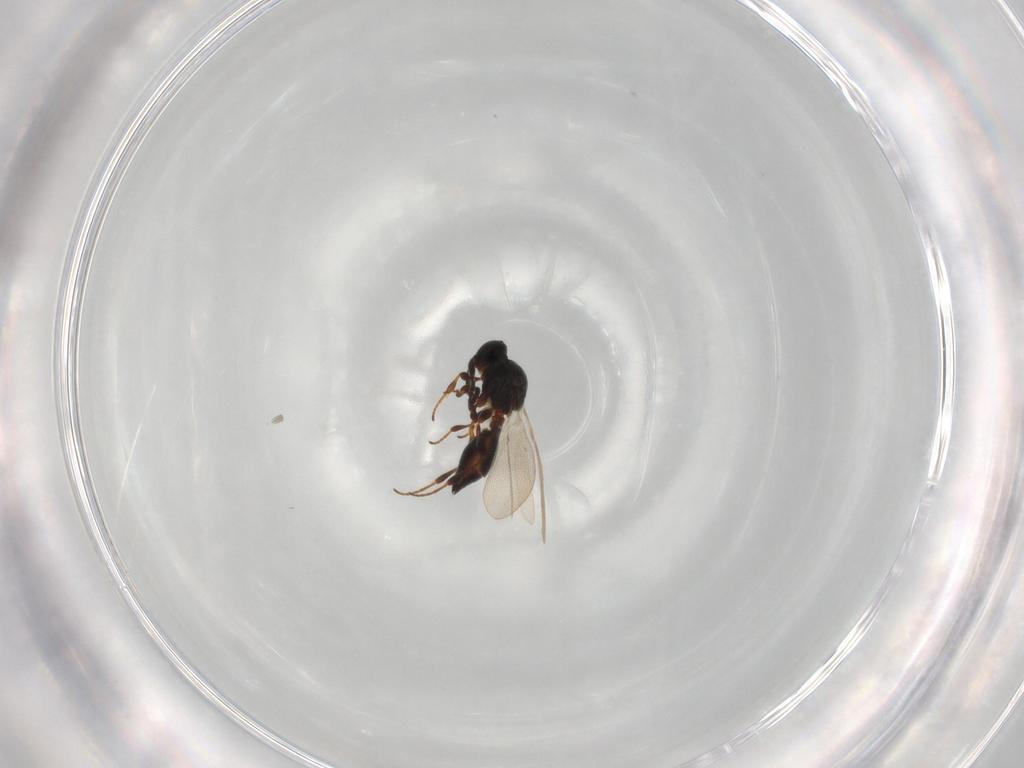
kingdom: Animalia
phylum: Arthropoda
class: Insecta
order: Hymenoptera
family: Platygastridae
